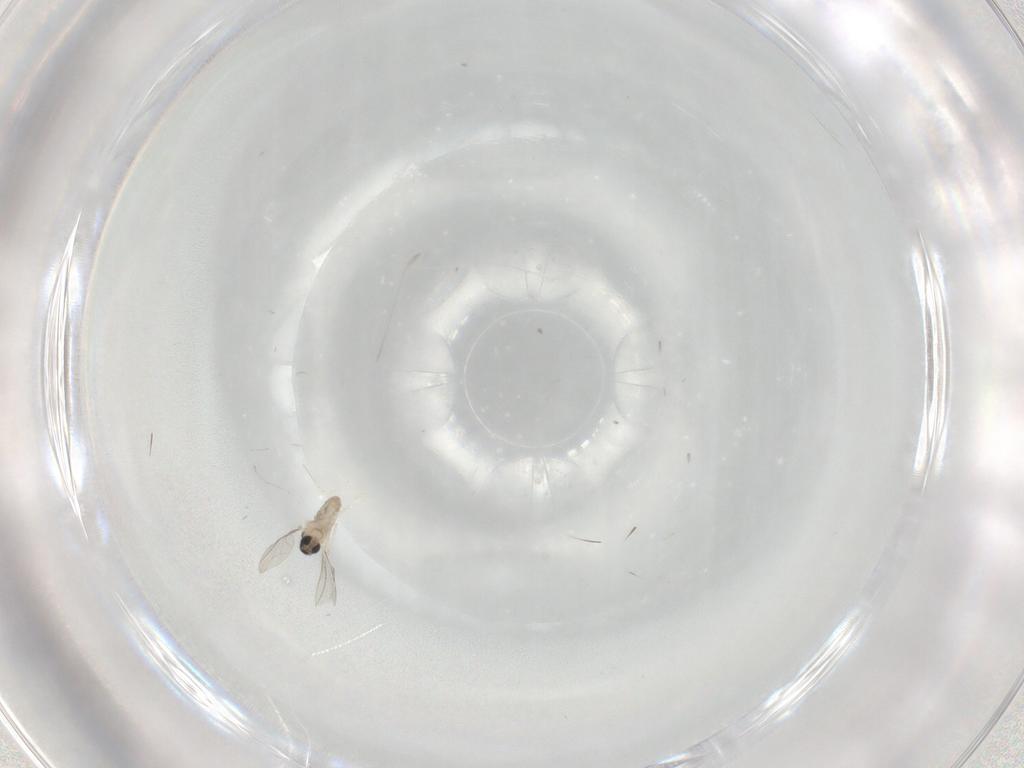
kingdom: Animalia
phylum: Arthropoda
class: Insecta
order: Diptera
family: Cecidomyiidae
